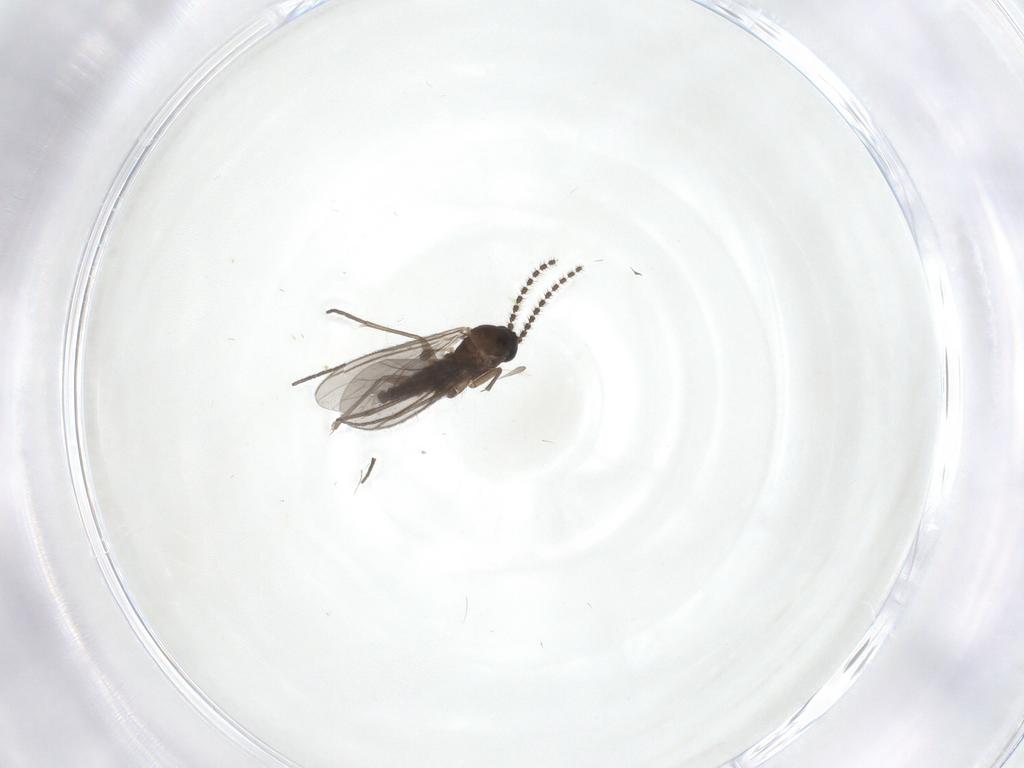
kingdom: Animalia
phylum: Arthropoda
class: Insecta
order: Diptera
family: Sciaridae
